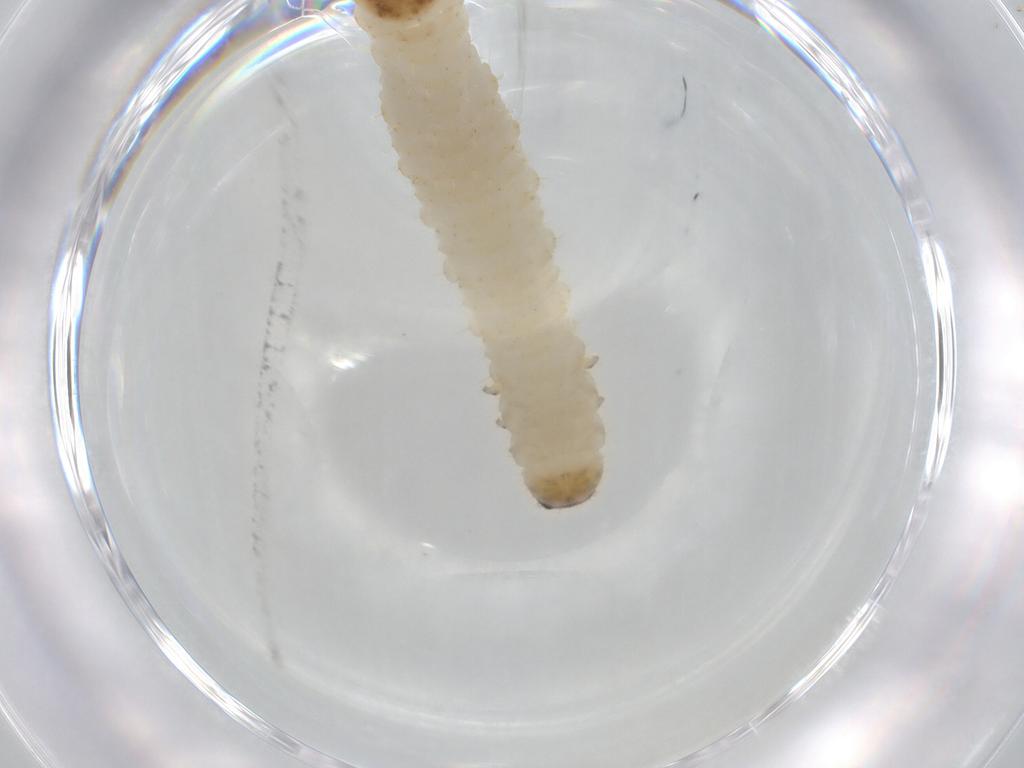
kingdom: Animalia
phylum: Arthropoda
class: Insecta
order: Coleoptera
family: Chrysomelidae
